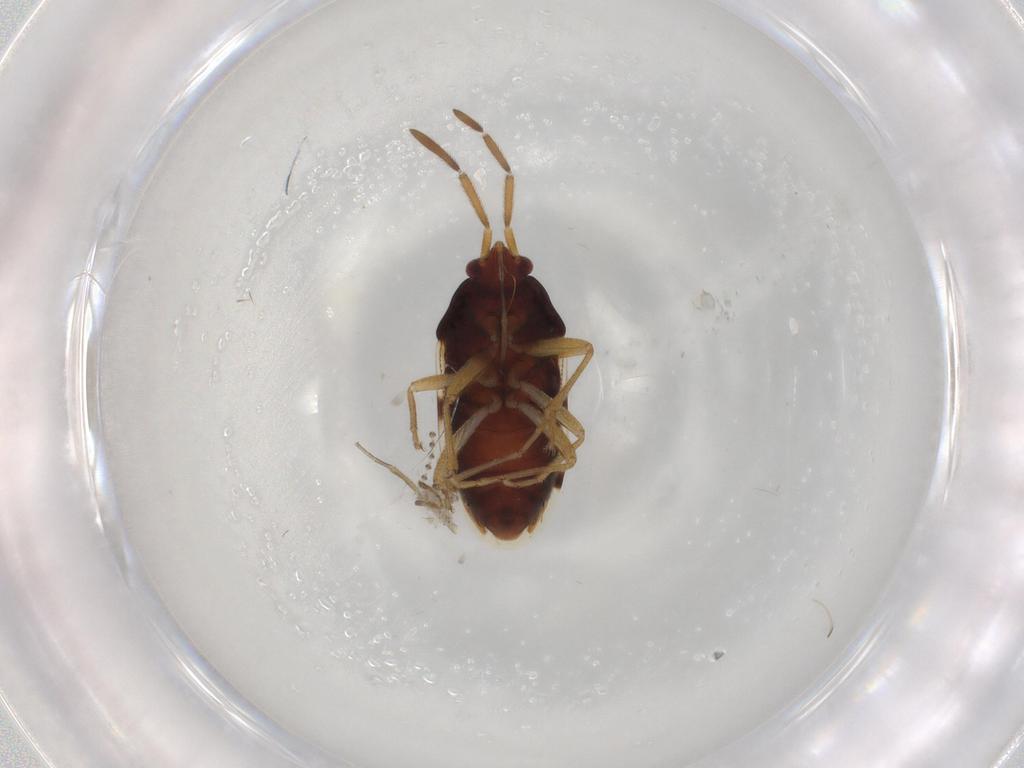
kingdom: Animalia
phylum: Arthropoda
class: Insecta
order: Hemiptera
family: Rhyparochromidae
